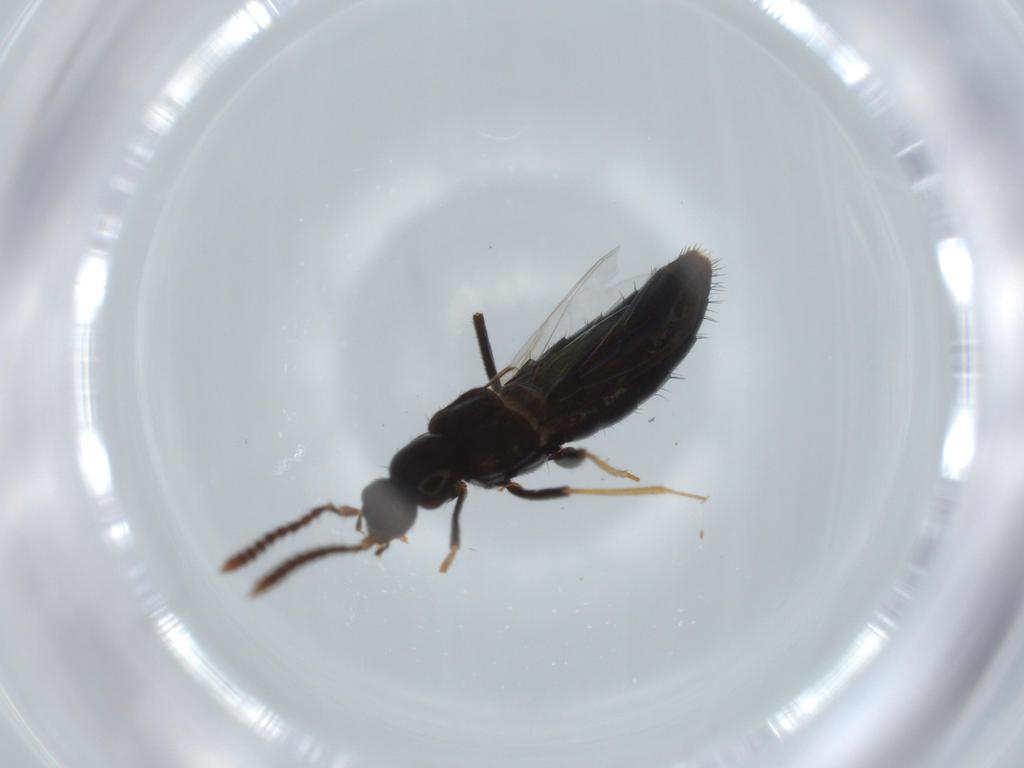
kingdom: Animalia
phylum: Arthropoda
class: Insecta
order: Coleoptera
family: Staphylinidae
